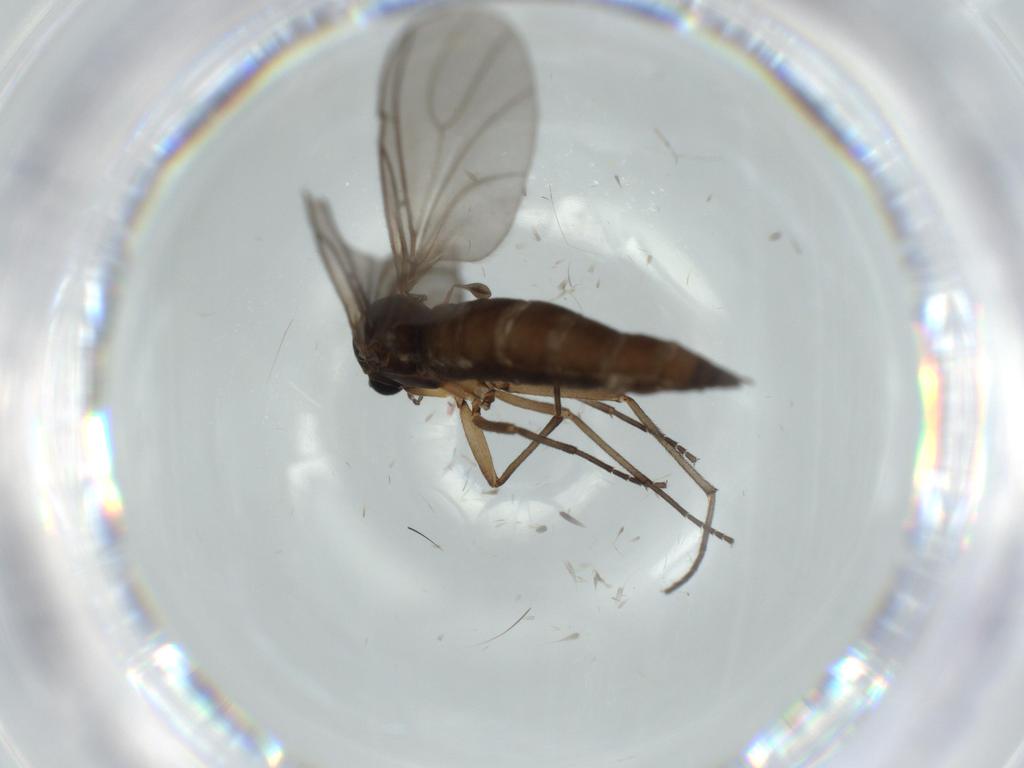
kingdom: Animalia
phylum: Arthropoda
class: Insecta
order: Diptera
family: Sciaridae
